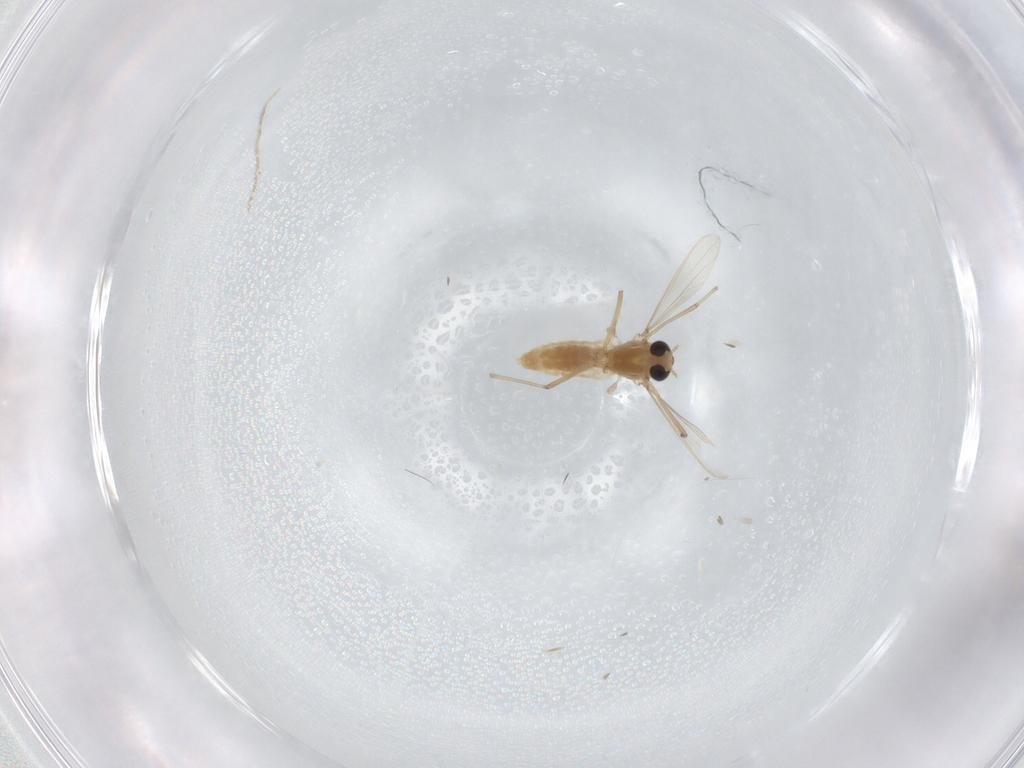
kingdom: Animalia
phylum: Arthropoda
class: Insecta
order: Diptera
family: Chironomidae
